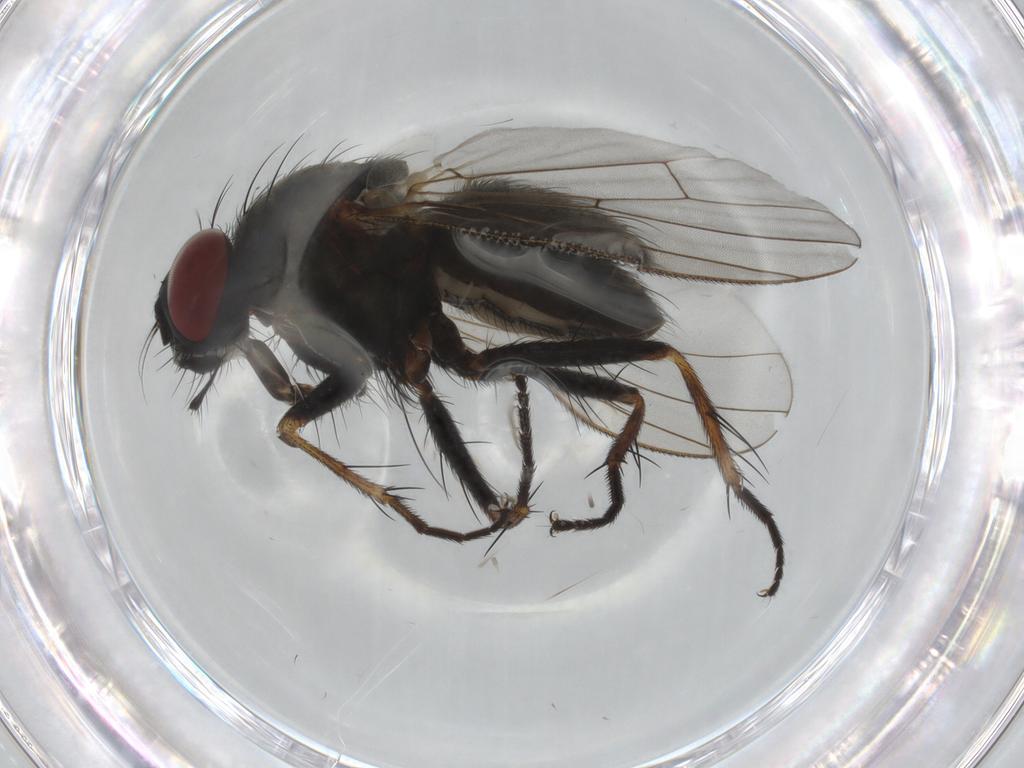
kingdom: Animalia
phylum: Arthropoda
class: Insecta
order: Diptera
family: Muscidae
